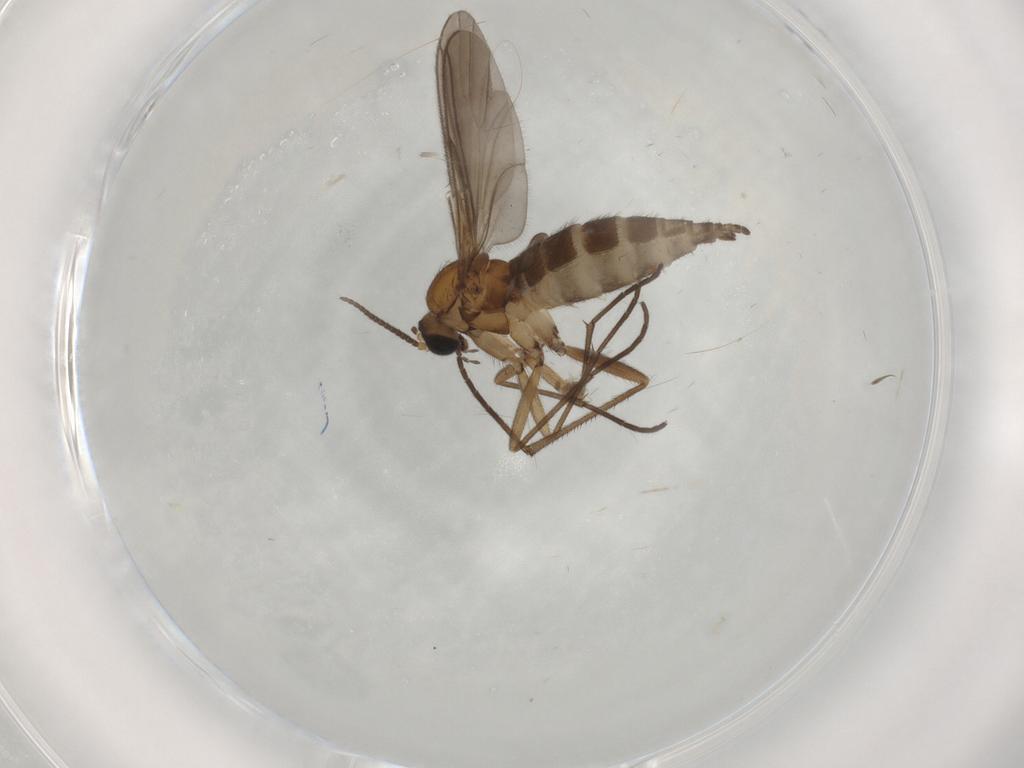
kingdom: Animalia
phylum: Arthropoda
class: Insecta
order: Diptera
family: Sciaridae
